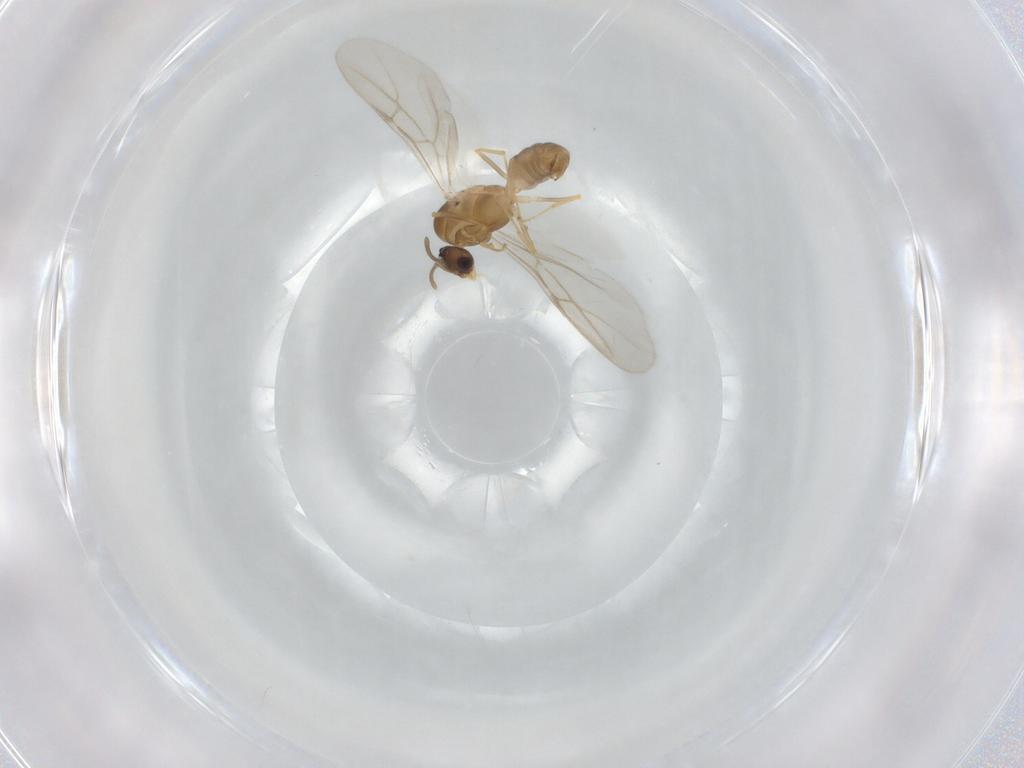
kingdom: Animalia
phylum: Arthropoda
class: Insecta
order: Hymenoptera
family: Formicidae
